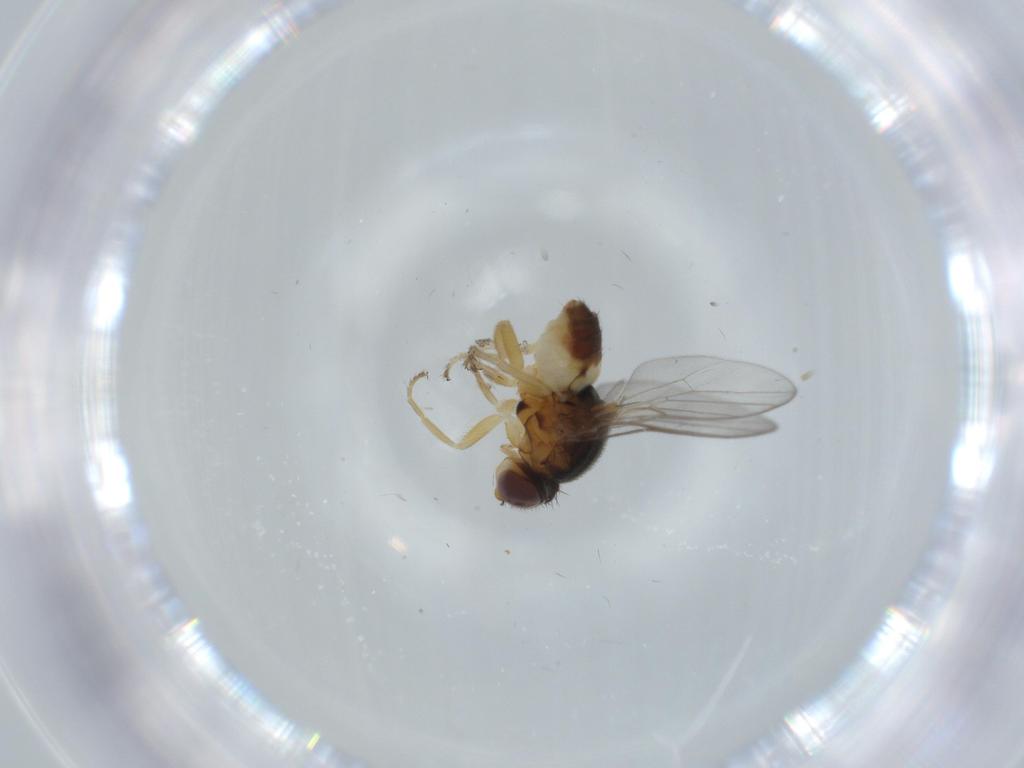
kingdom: Animalia
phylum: Arthropoda
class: Insecta
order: Diptera
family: Chloropidae
